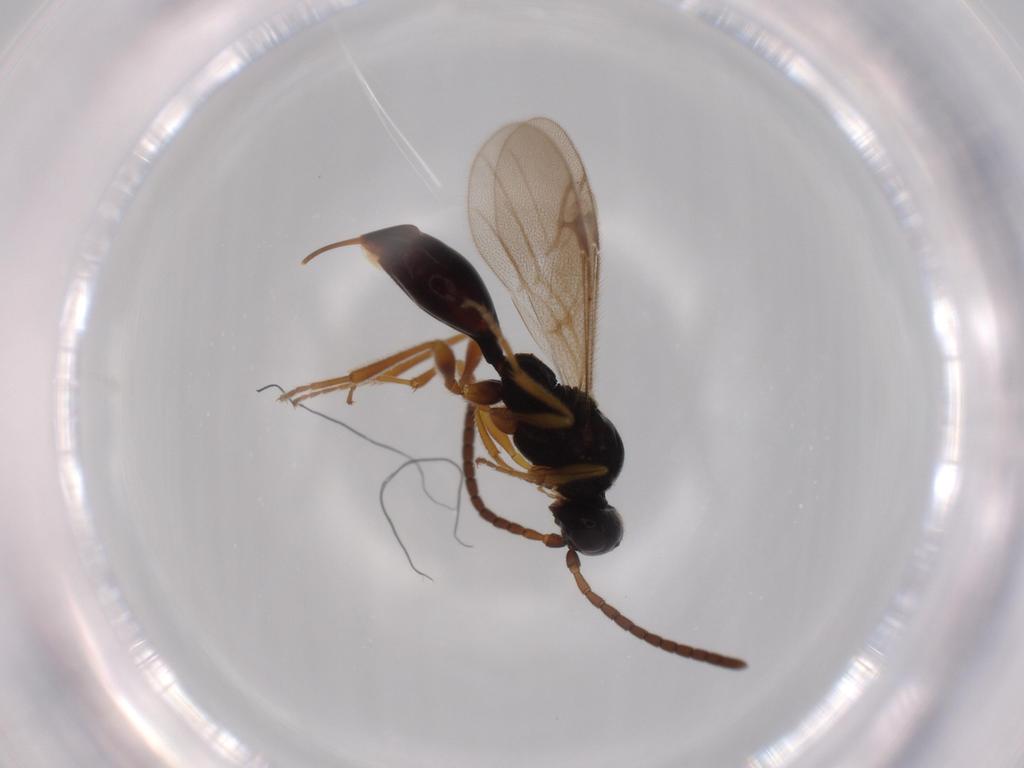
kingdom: Animalia
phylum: Arthropoda
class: Insecta
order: Hymenoptera
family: Proctotrupidae
